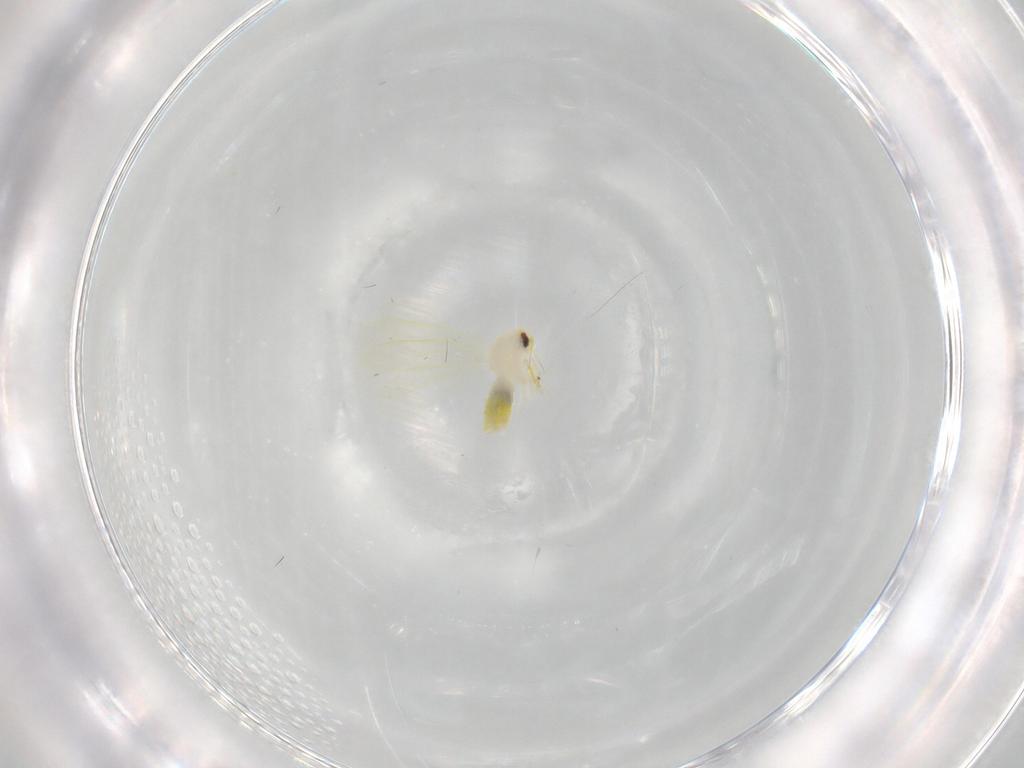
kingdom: Animalia
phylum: Arthropoda
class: Insecta
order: Hemiptera
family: Aleyrodidae
